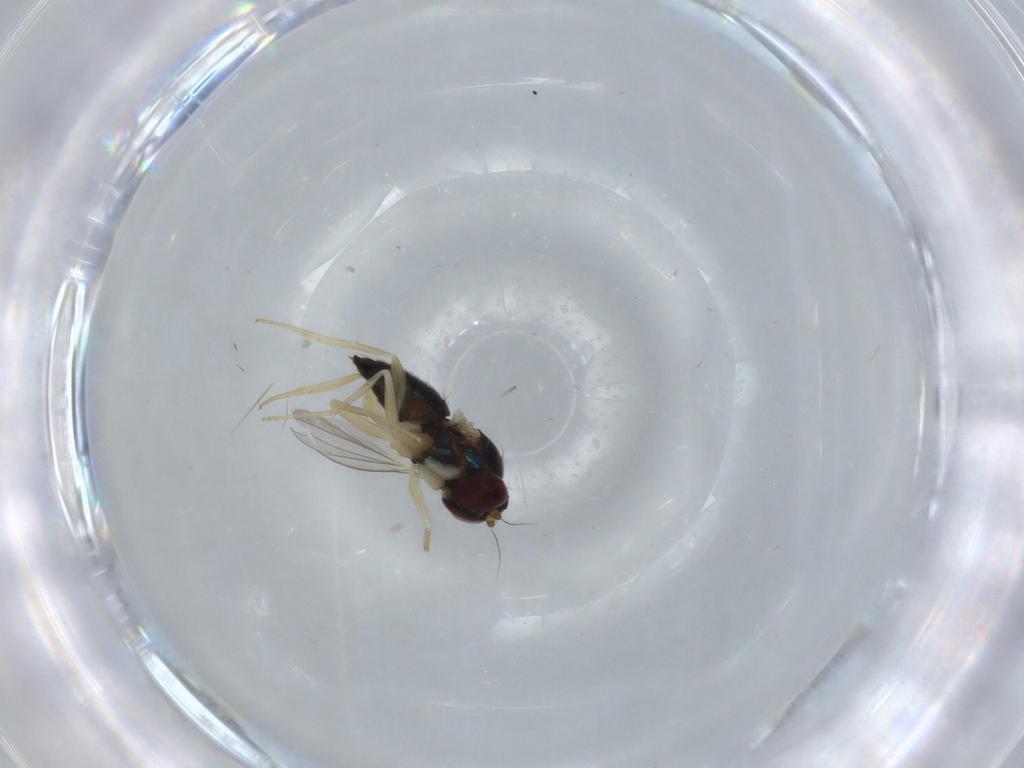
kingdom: Animalia
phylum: Arthropoda
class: Insecta
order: Diptera
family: Dolichopodidae
